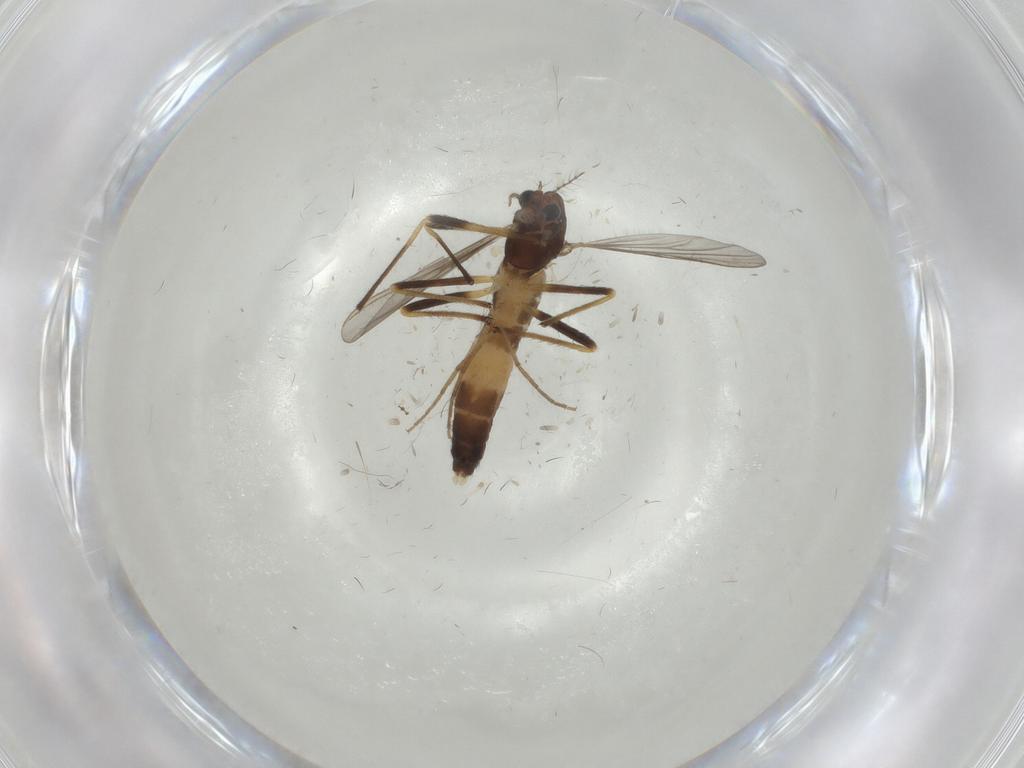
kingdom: Animalia
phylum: Arthropoda
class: Insecta
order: Diptera
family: Chironomidae
